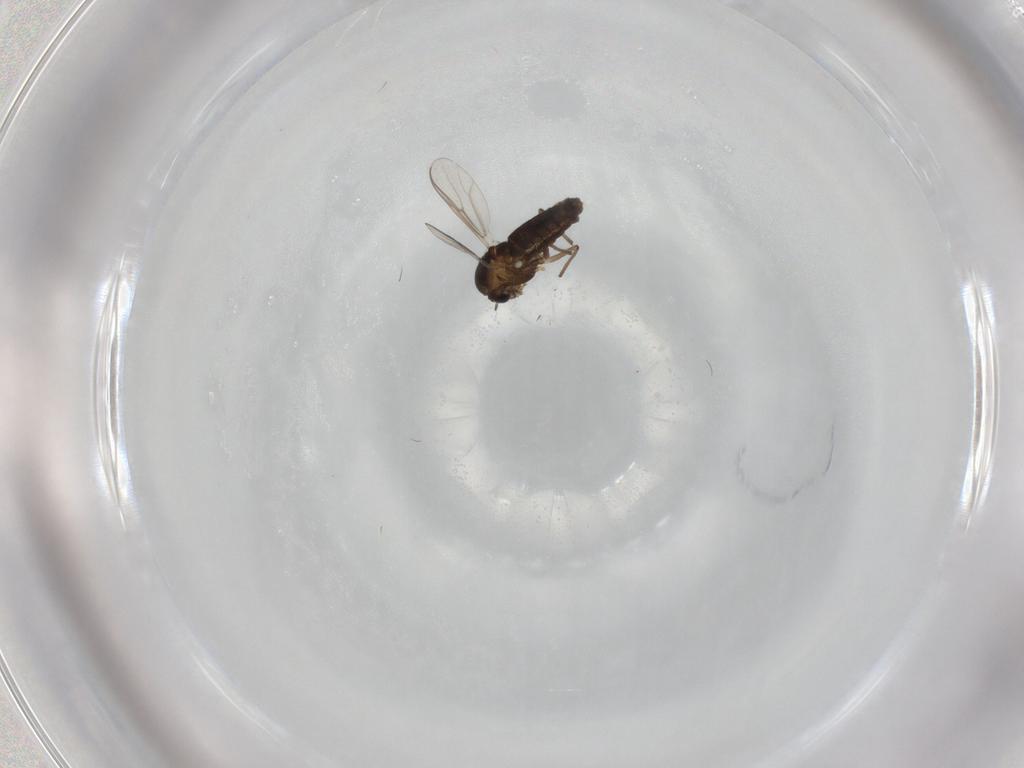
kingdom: Animalia
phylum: Arthropoda
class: Insecta
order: Diptera
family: Chironomidae
